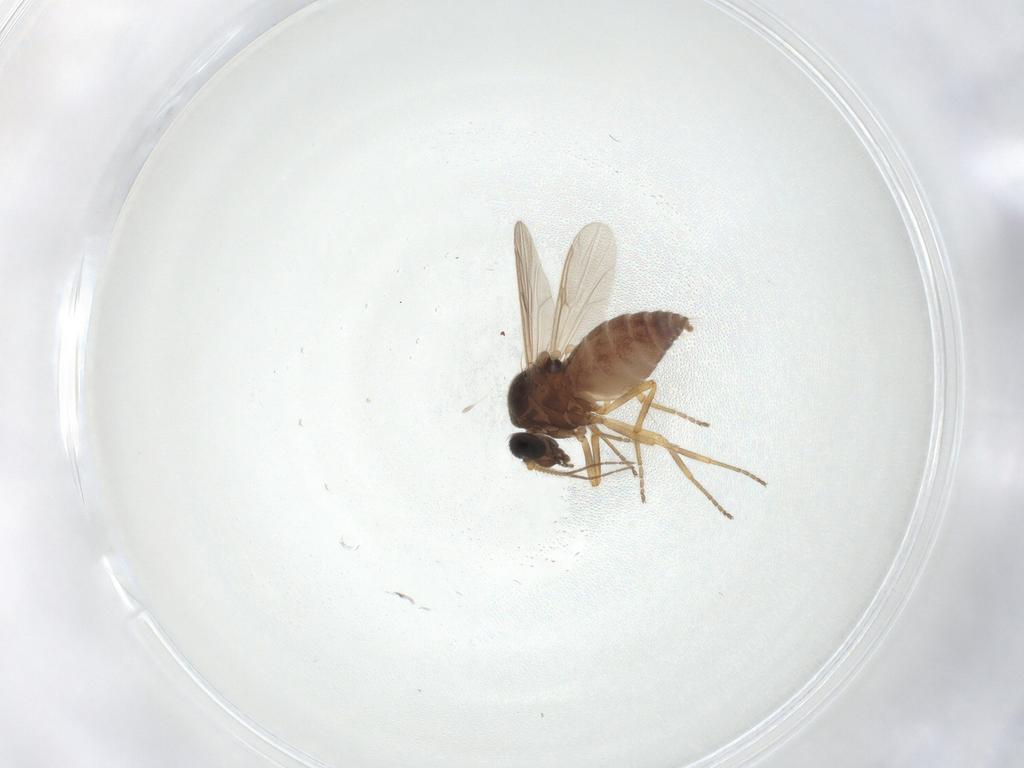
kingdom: Animalia
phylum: Arthropoda
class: Insecta
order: Diptera
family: Ceratopogonidae
